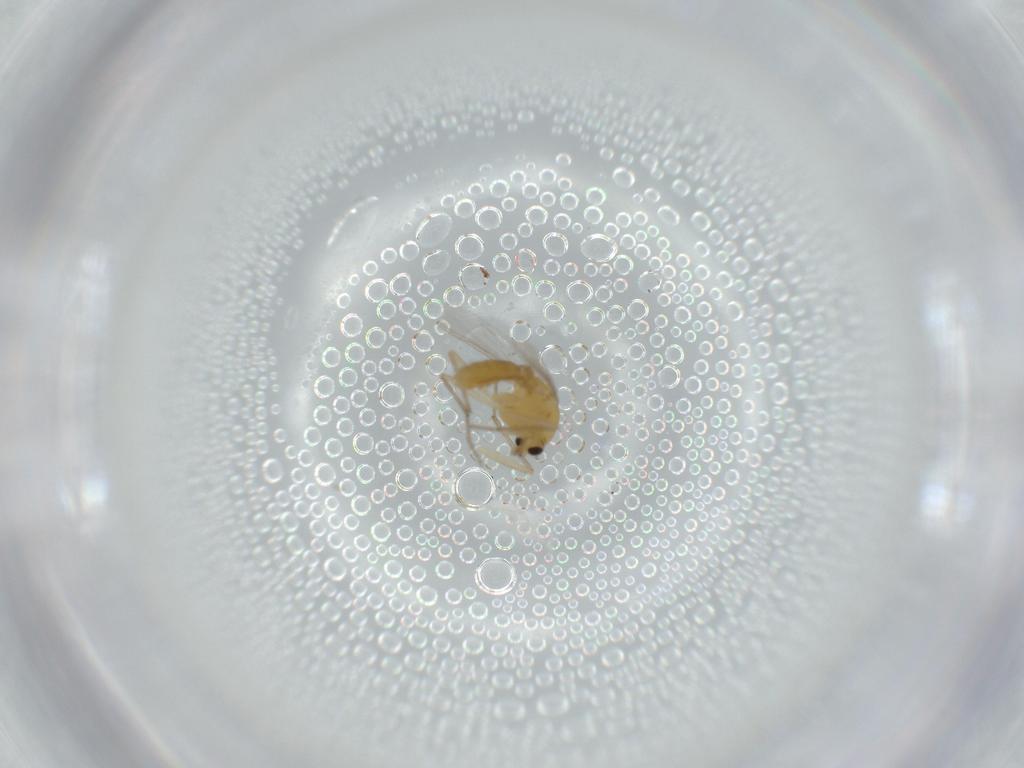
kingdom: Animalia
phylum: Arthropoda
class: Insecta
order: Diptera
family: Chironomidae
